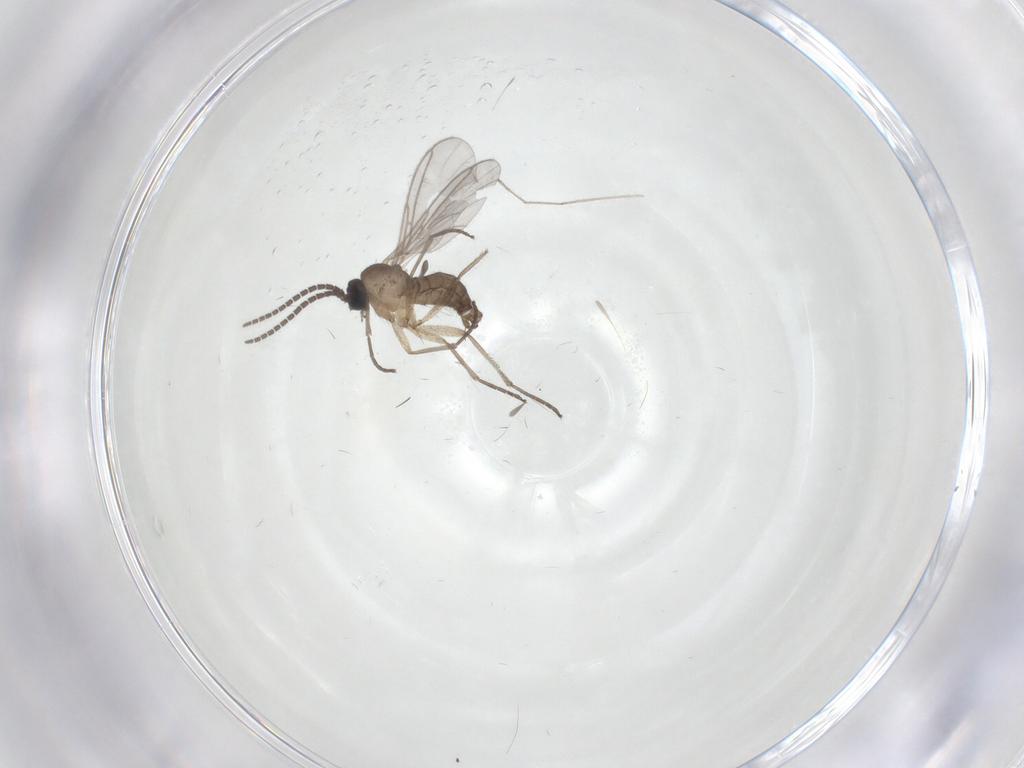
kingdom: Animalia
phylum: Arthropoda
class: Insecta
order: Diptera
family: Sciaridae
